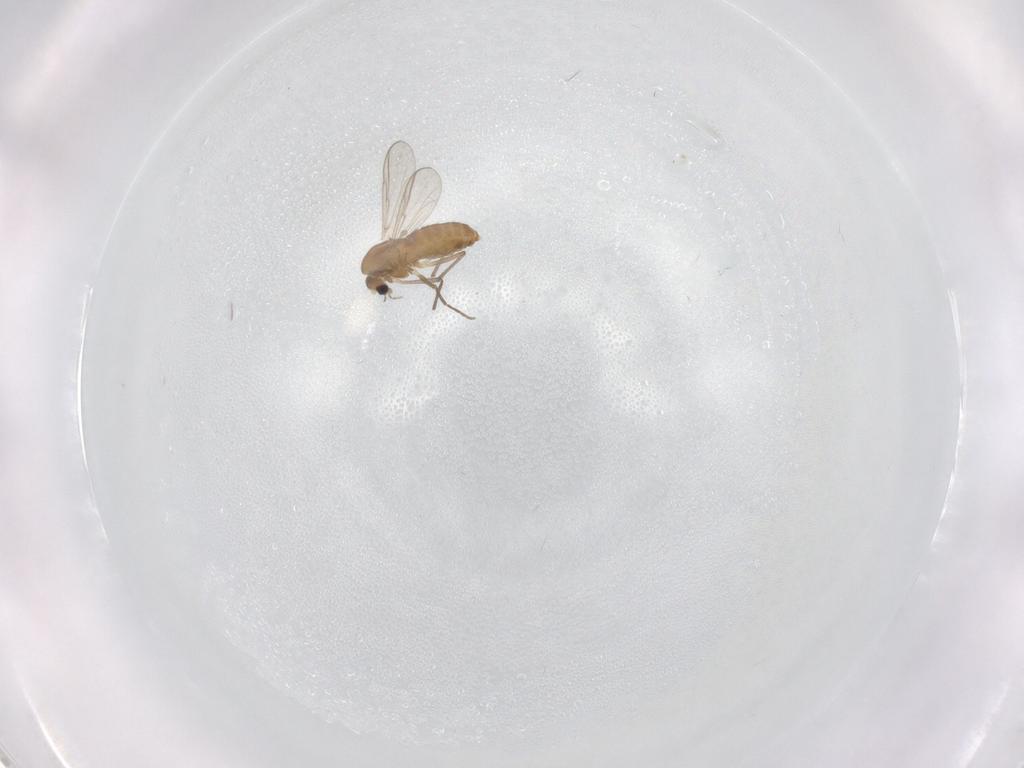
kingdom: Animalia
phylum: Arthropoda
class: Insecta
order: Diptera
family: Chironomidae
